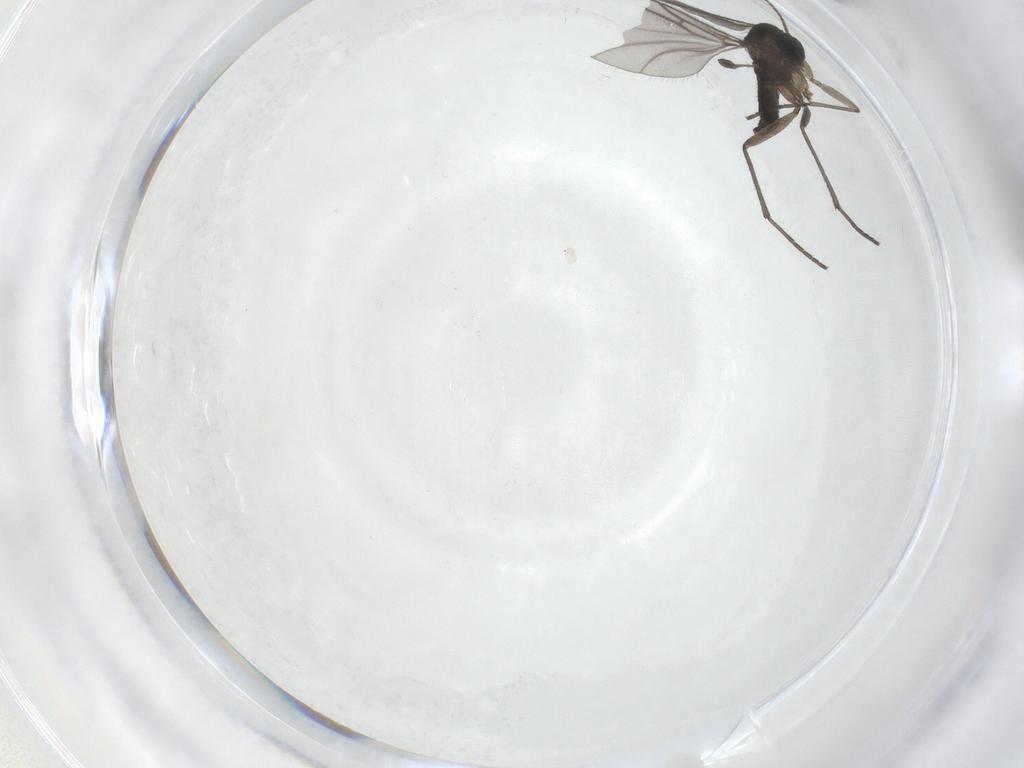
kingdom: Animalia
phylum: Arthropoda
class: Insecta
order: Diptera
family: Sciaridae
